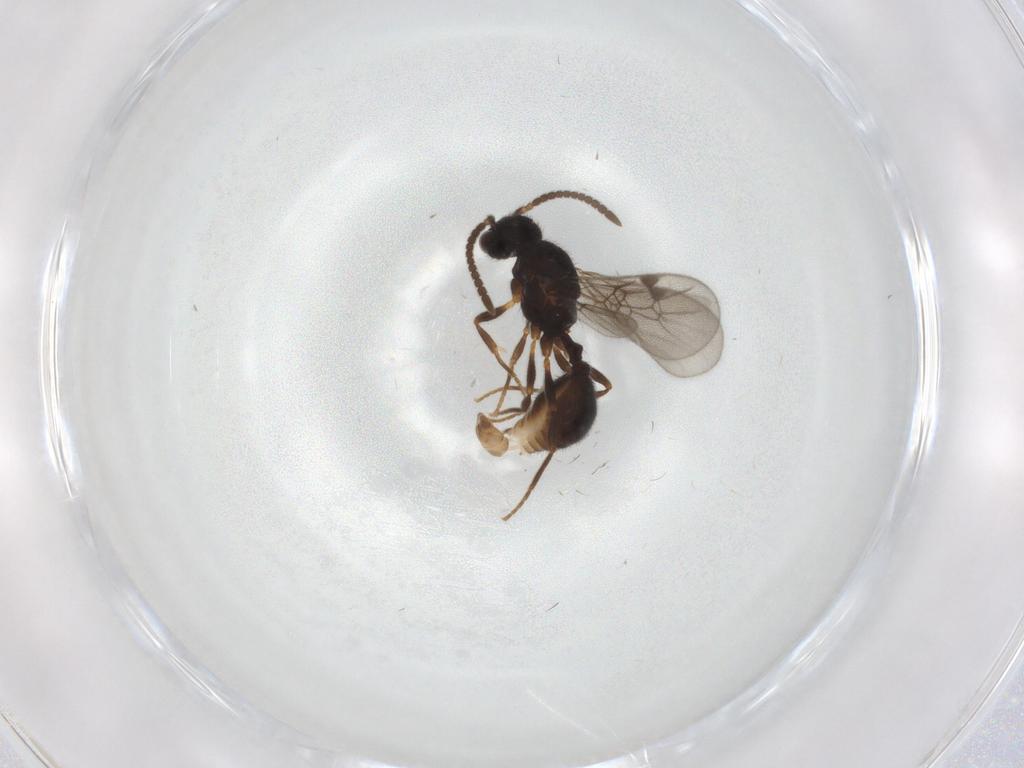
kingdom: Animalia
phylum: Arthropoda
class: Insecta
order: Hymenoptera
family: Formicidae
